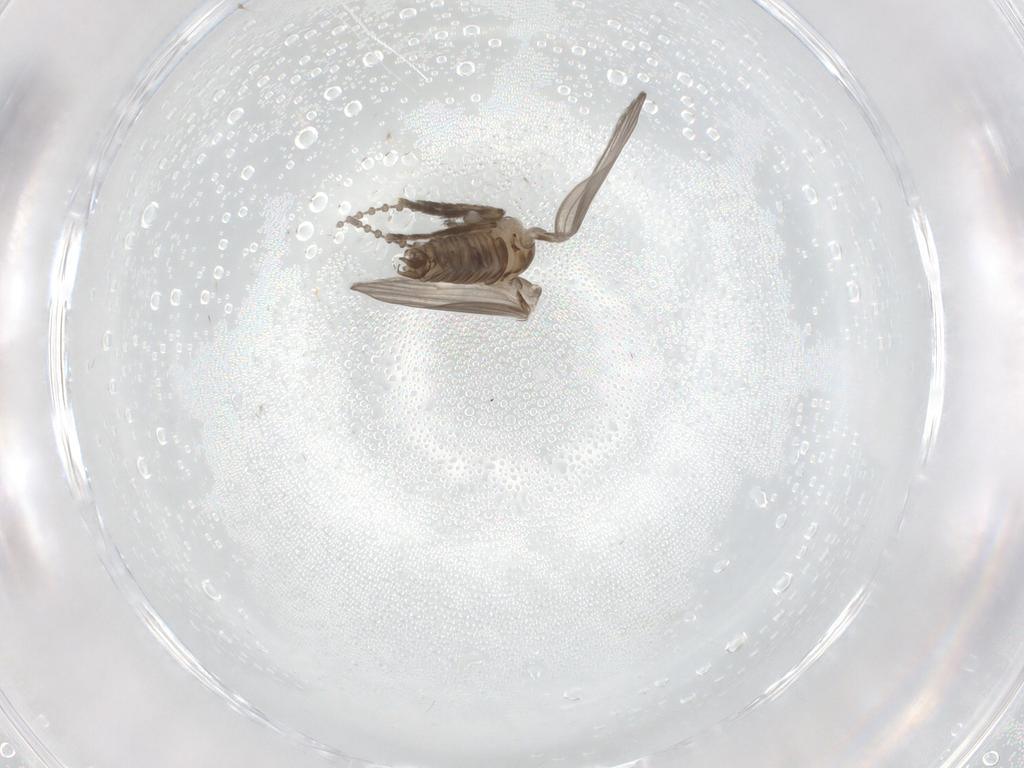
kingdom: Animalia
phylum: Arthropoda
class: Insecta
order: Diptera
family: Psychodidae
